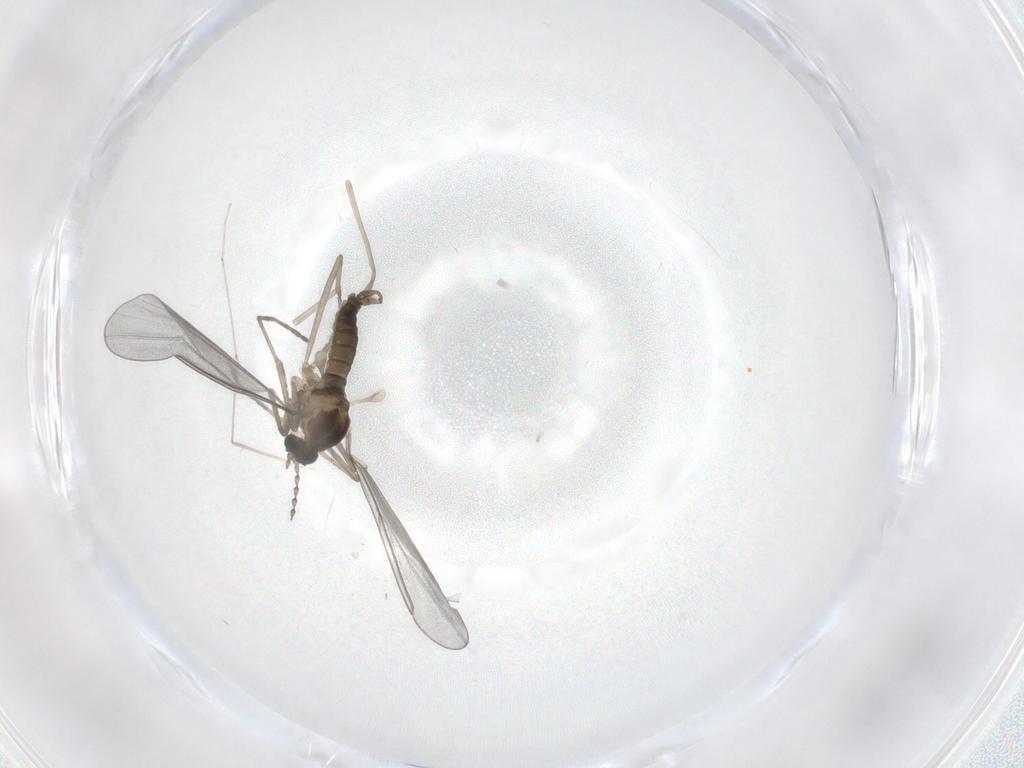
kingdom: Animalia
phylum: Arthropoda
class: Insecta
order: Diptera
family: Cecidomyiidae
